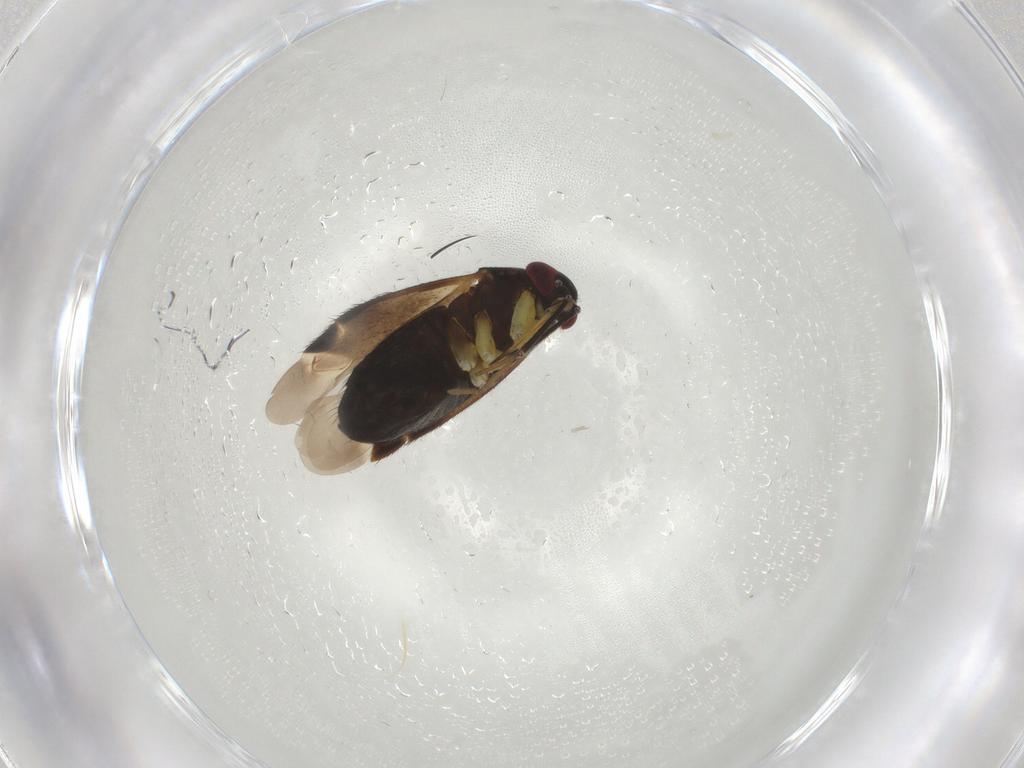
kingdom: Animalia
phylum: Arthropoda
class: Insecta
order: Hemiptera
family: Miridae
